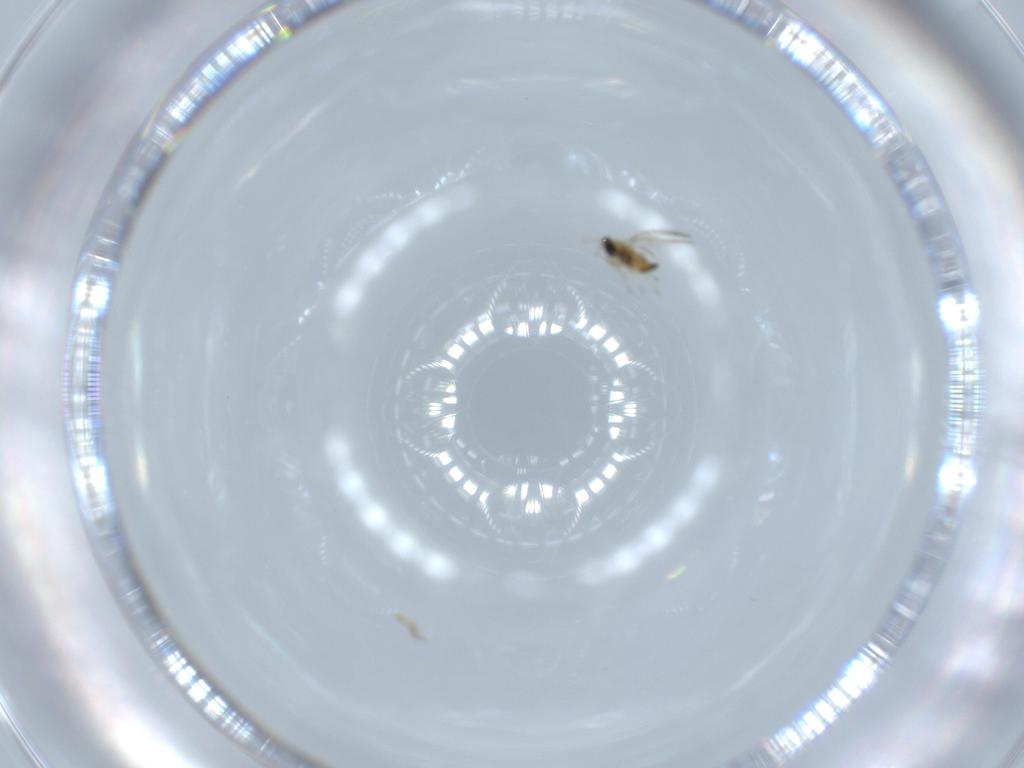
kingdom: Animalia
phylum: Arthropoda
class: Insecta
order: Hymenoptera
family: Trichogrammatidae
